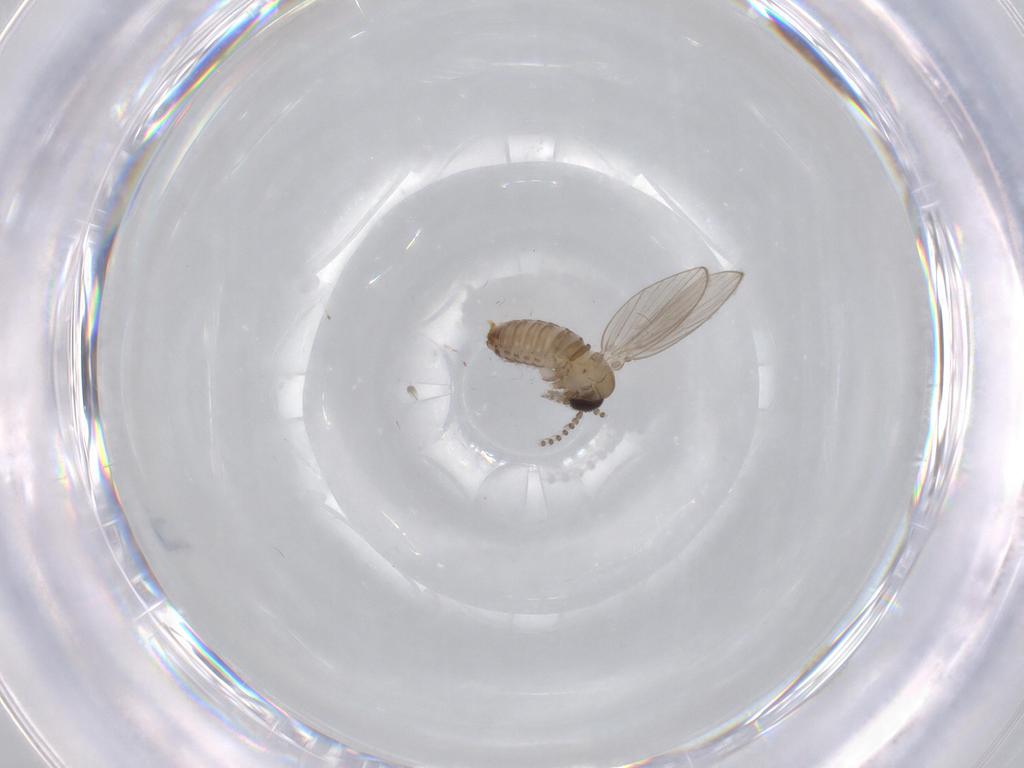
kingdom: Animalia
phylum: Arthropoda
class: Insecta
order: Diptera
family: Psychodidae
